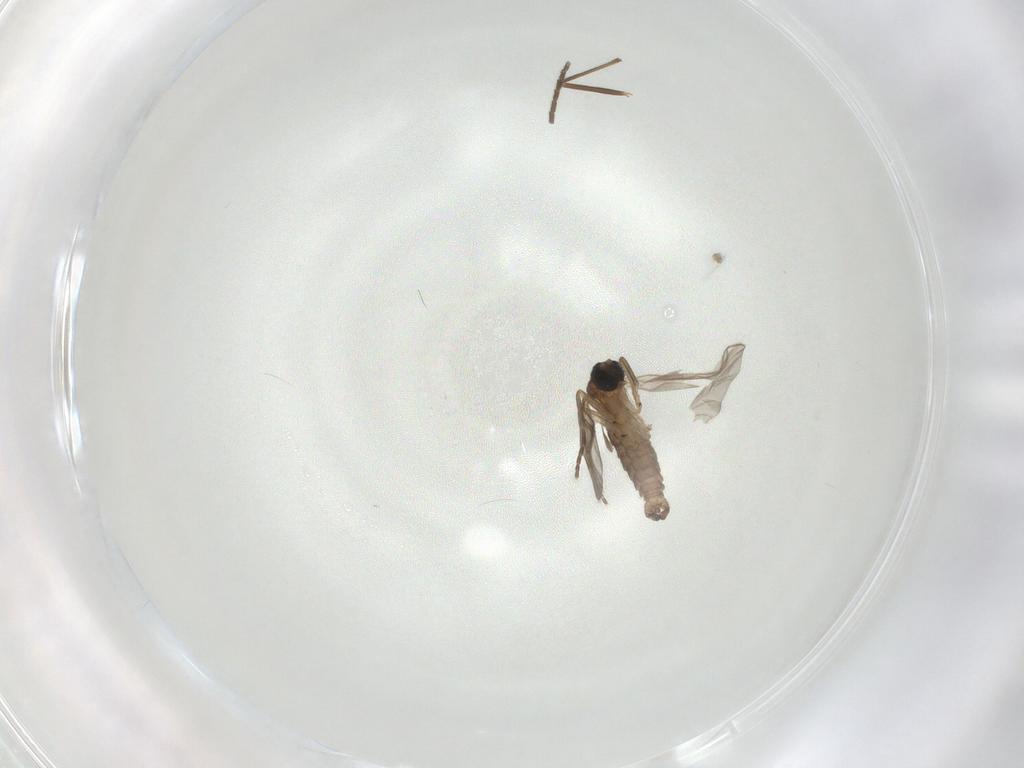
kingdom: Animalia
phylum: Arthropoda
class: Insecta
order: Diptera
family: Sciaridae
